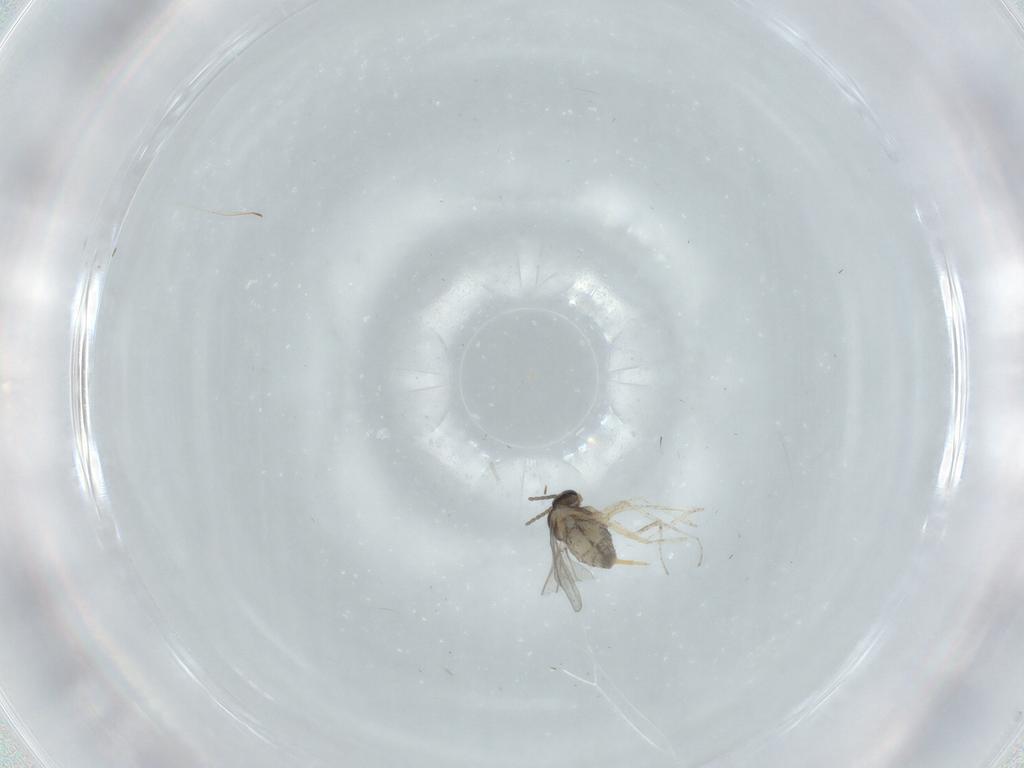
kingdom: Animalia
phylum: Arthropoda
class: Insecta
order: Diptera
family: Cecidomyiidae
